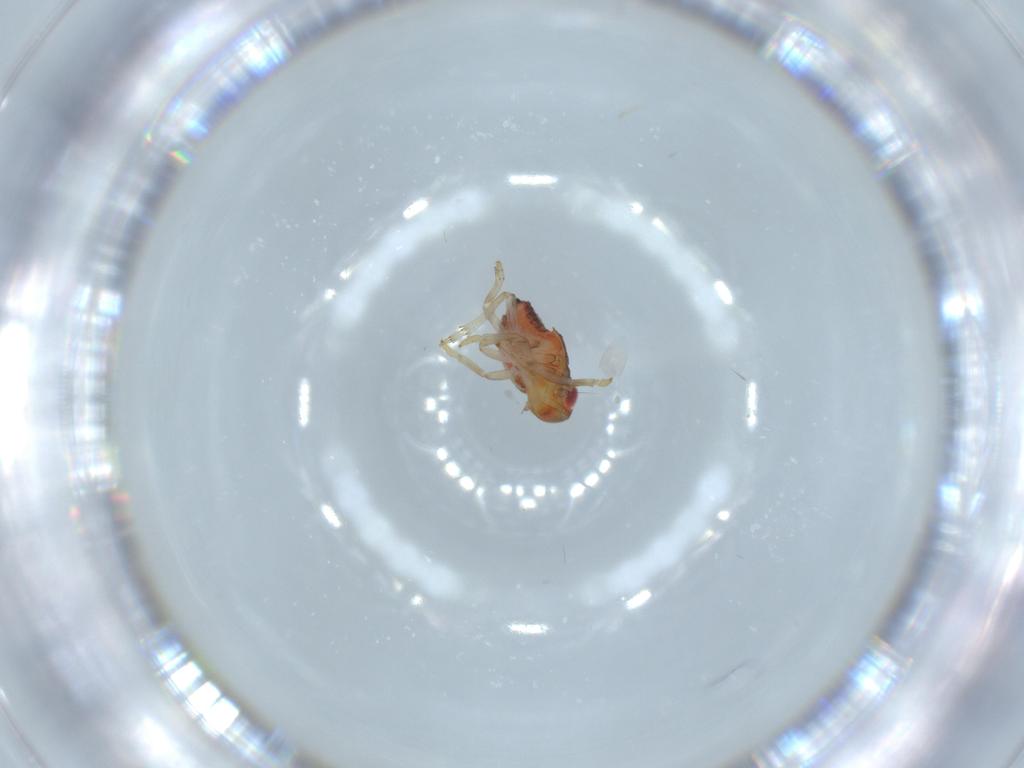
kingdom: Animalia
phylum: Arthropoda
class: Insecta
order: Hemiptera
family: Issidae
